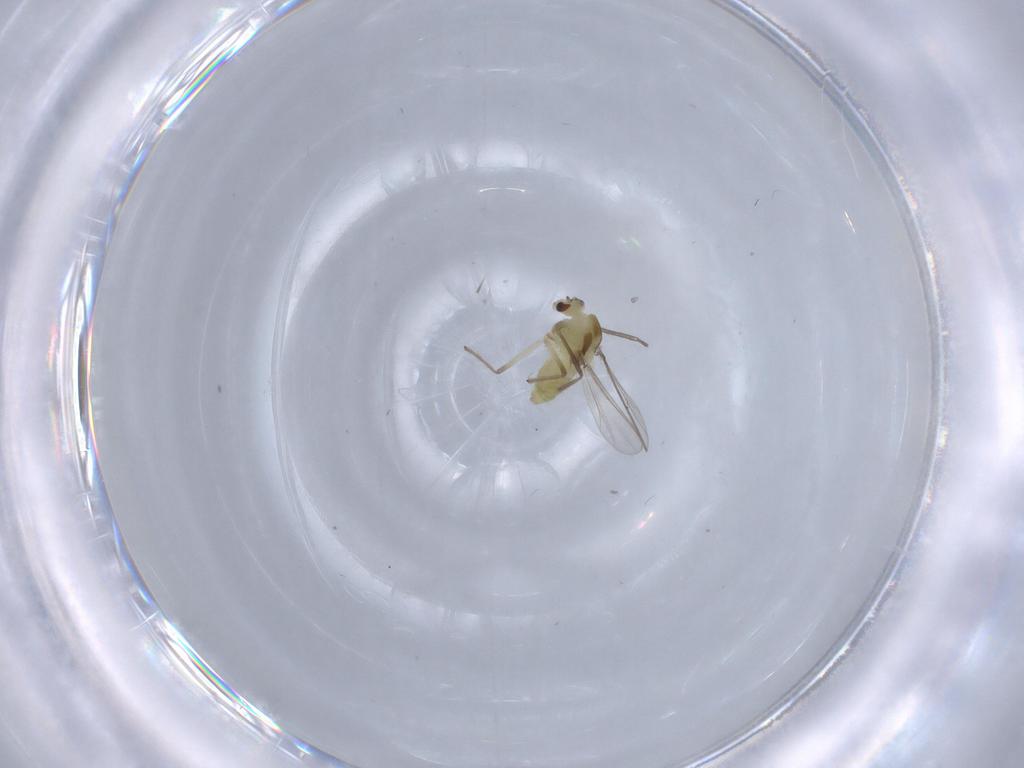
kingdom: Animalia
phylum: Arthropoda
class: Insecta
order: Diptera
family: Chironomidae
